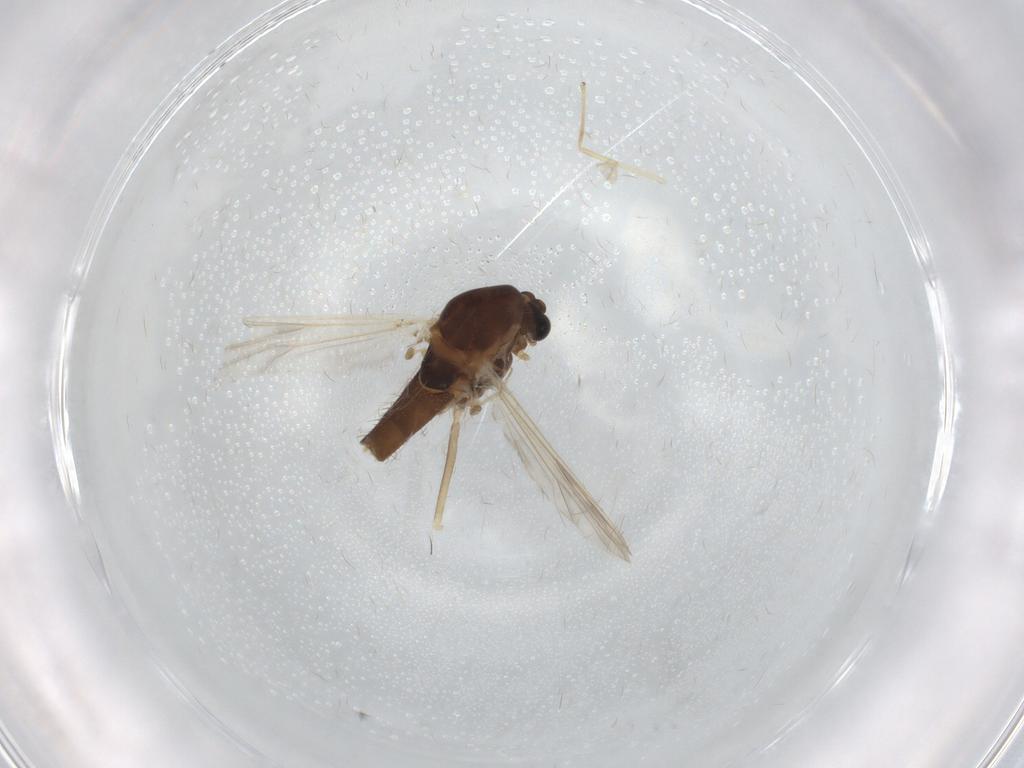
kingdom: Animalia
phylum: Arthropoda
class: Insecta
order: Diptera
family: Chironomidae
